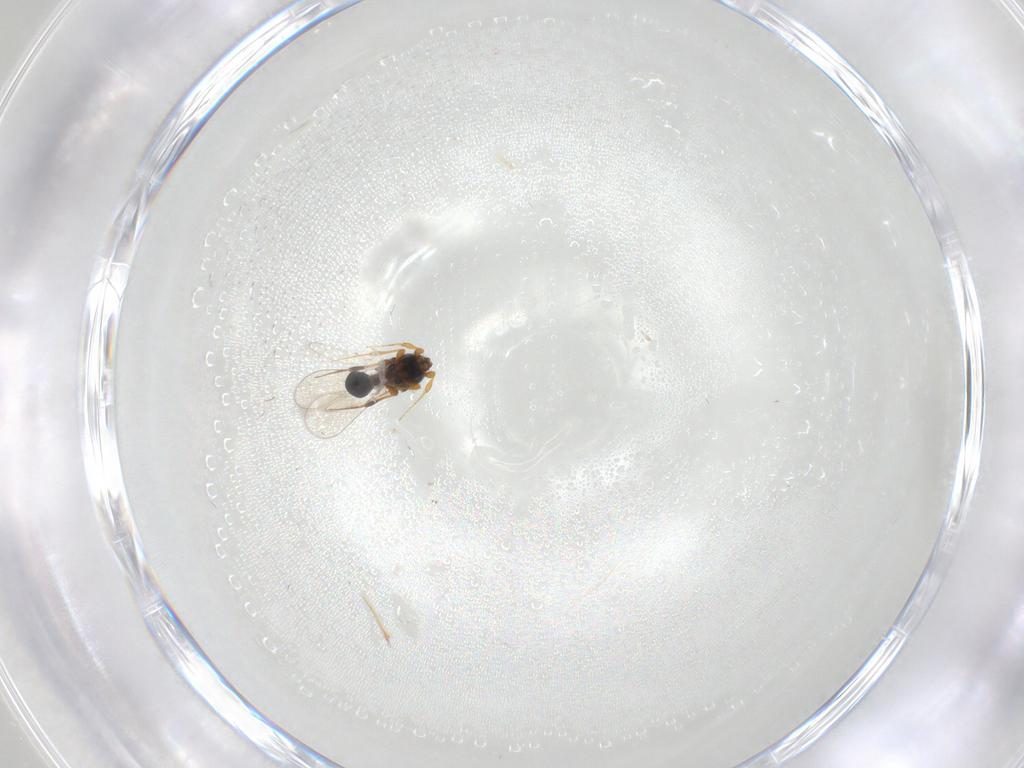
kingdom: Animalia
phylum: Arthropoda
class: Insecta
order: Hymenoptera
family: Platygastridae
